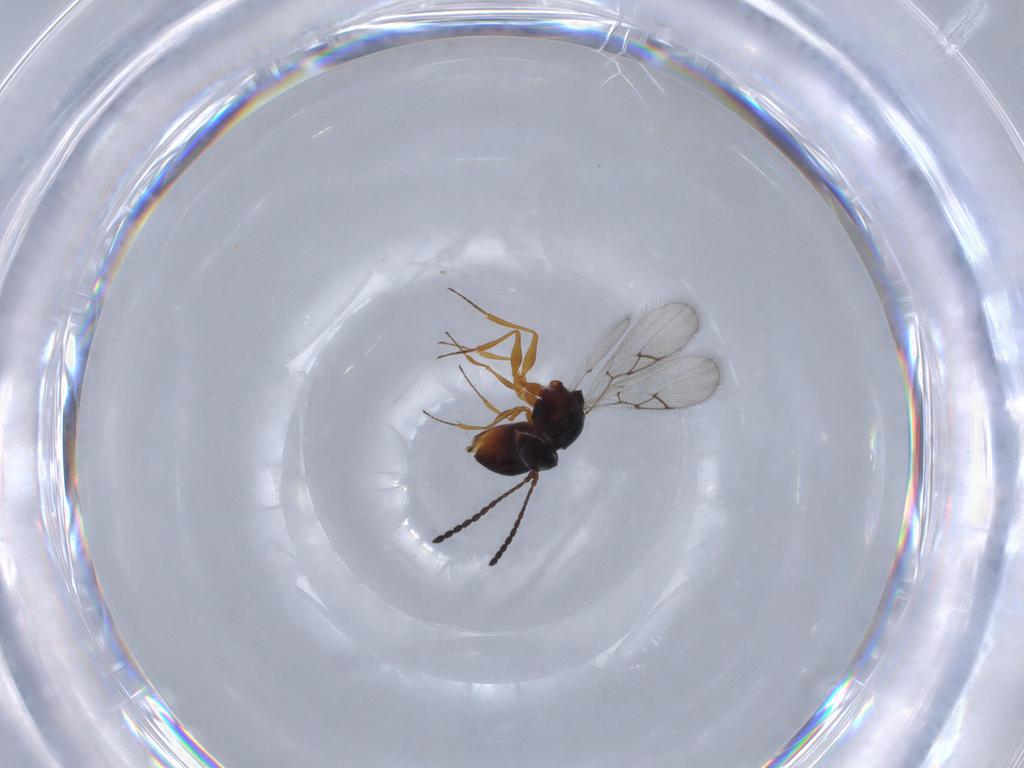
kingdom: Animalia
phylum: Arthropoda
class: Insecta
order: Hymenoptera
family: Figitidae
